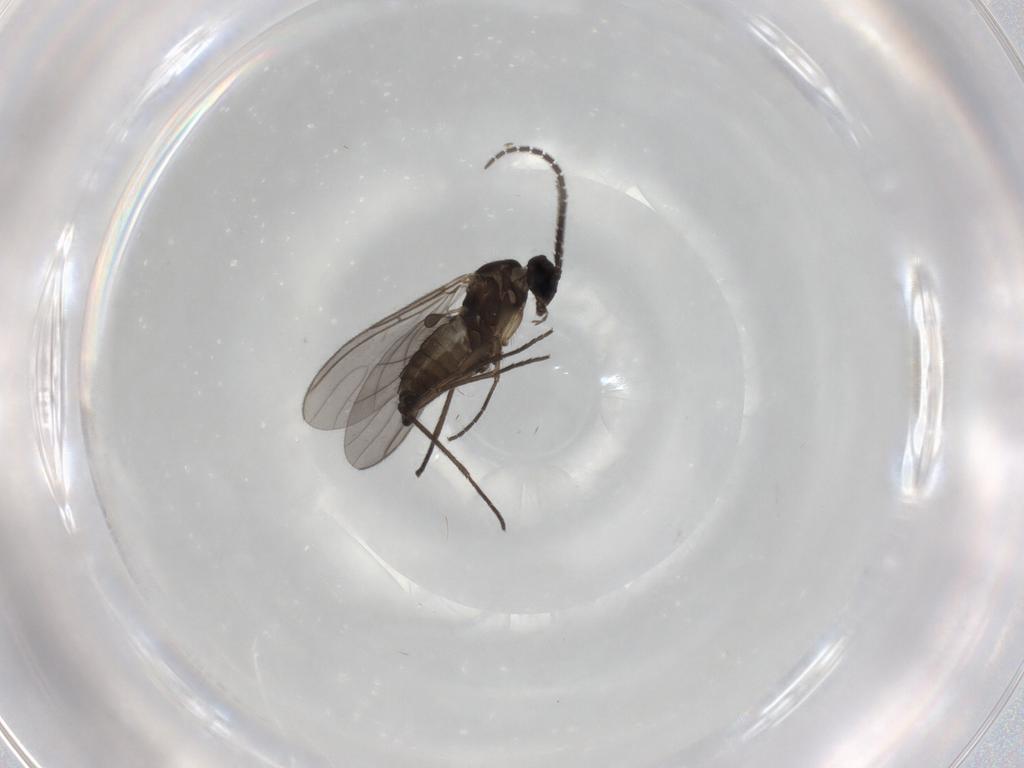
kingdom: Animalia
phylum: Arthropoda
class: Insecta
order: Diptera
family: Sciaridae
